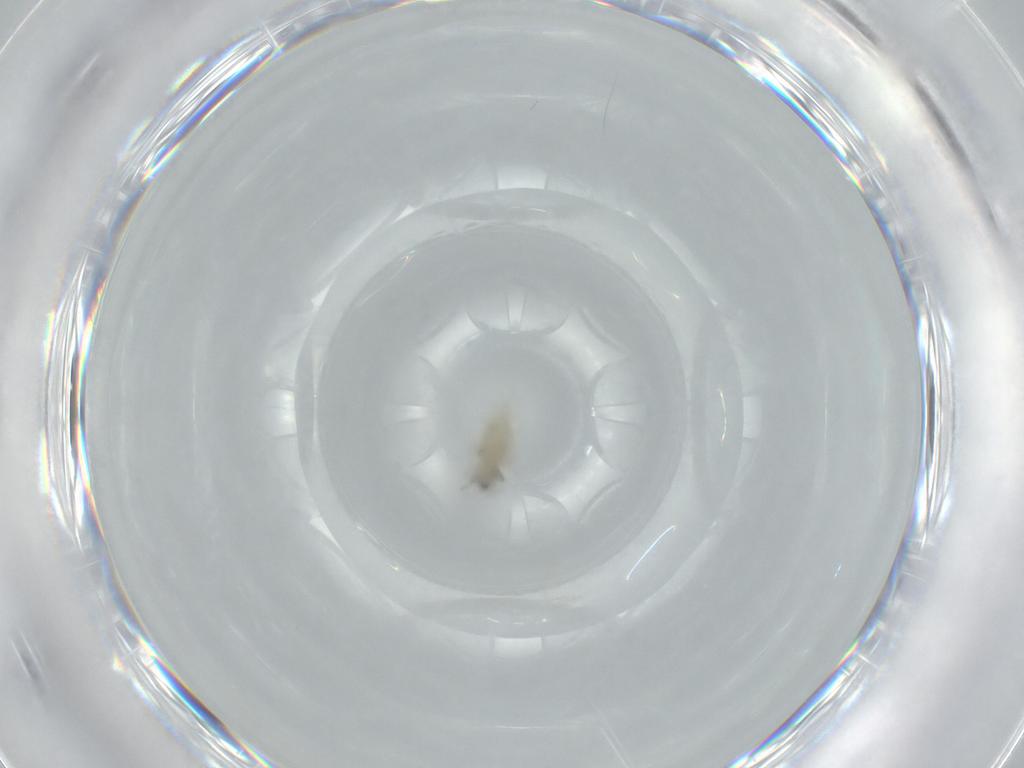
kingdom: Animalia
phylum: Arthropoda
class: Insecta
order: Diptera
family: Cecidomyiidae
